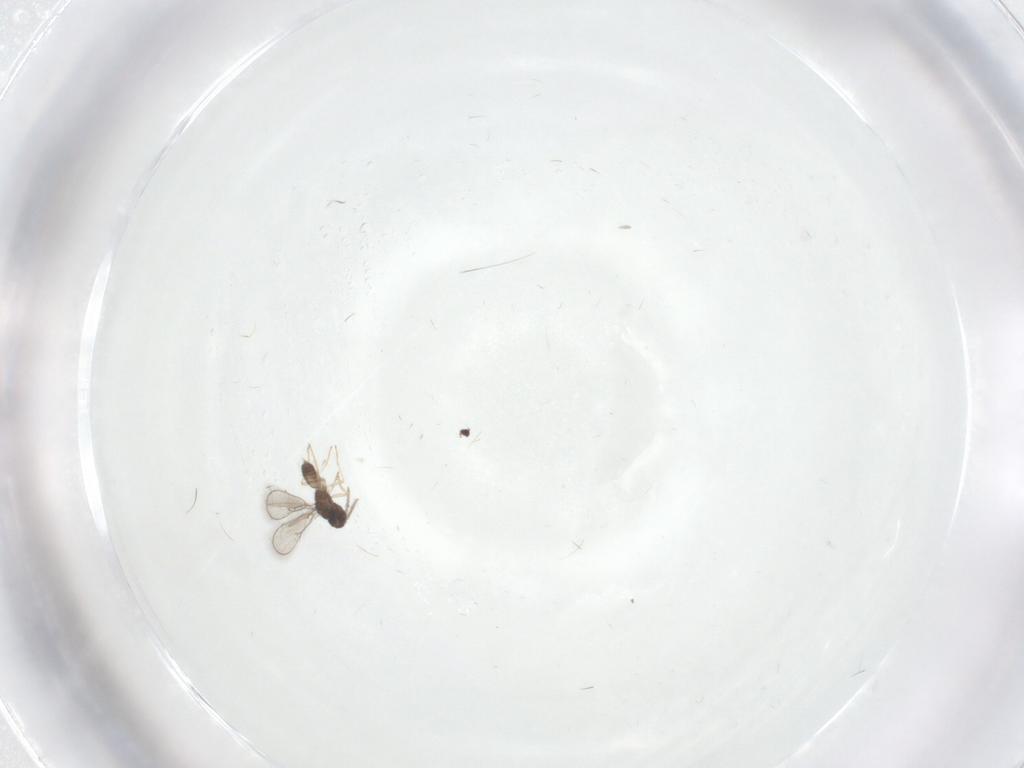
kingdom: Animalia
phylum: Arthropoda
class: Insecta
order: Hymenoptera
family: Eulophidae
